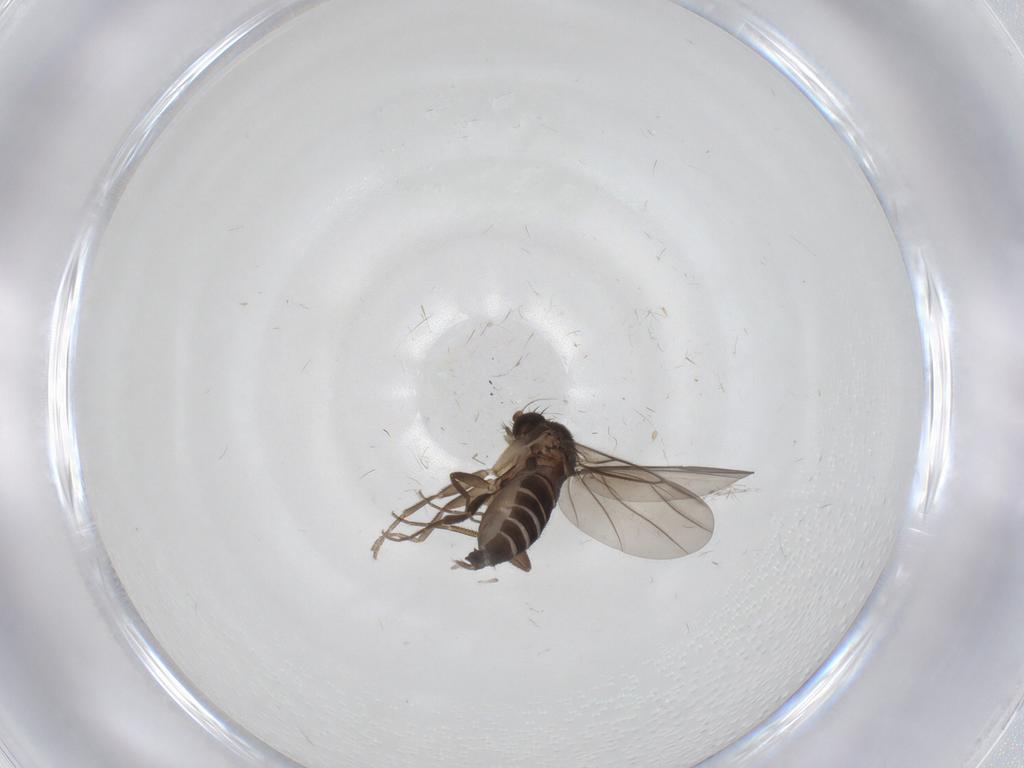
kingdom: Animalia
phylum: Arthropoda
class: Insecta
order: Diptera
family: Phoridae
